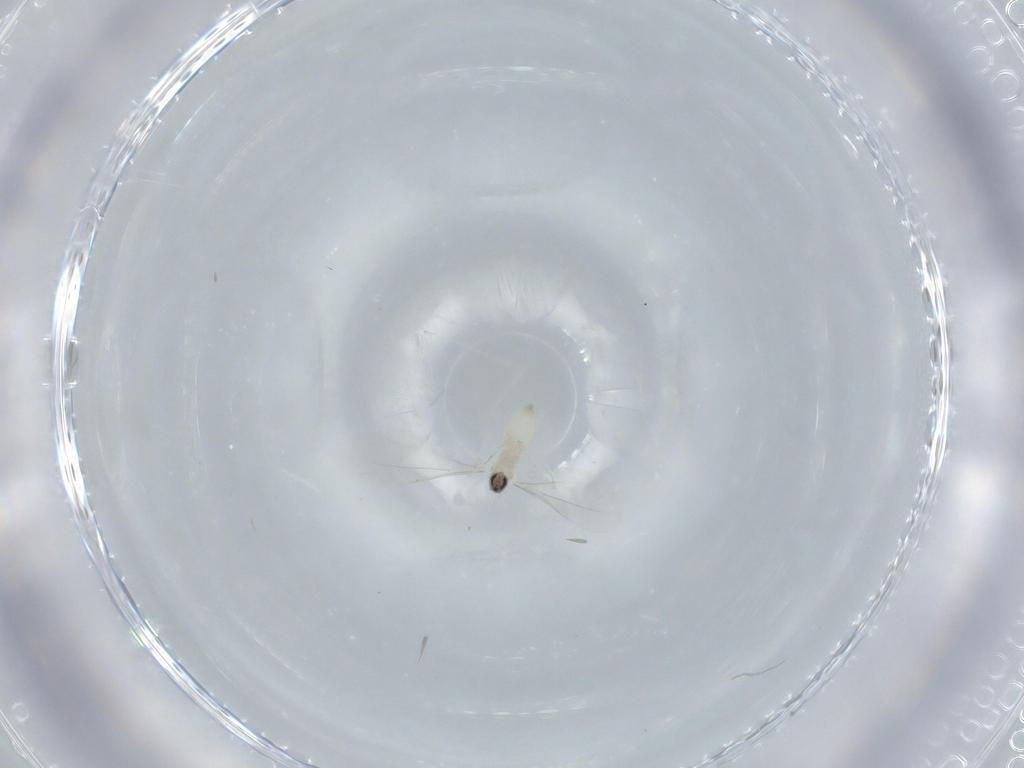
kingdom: Animalia
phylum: Arthropoda
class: Insecta
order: Diptera
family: Cecidomyiidae
